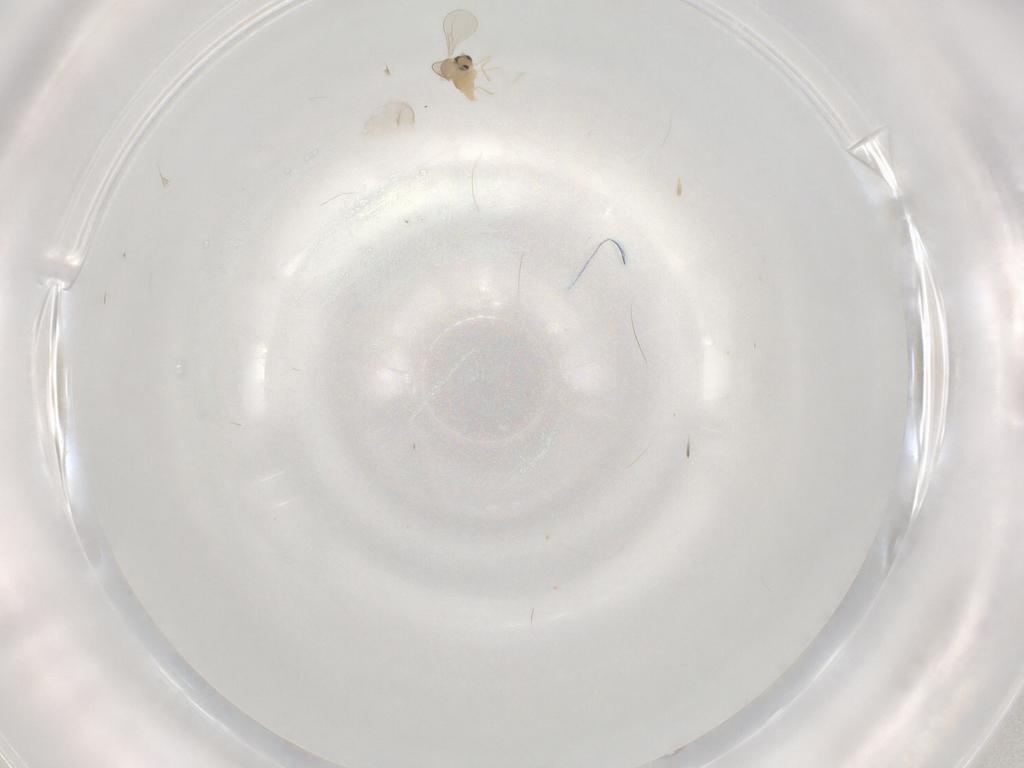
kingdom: Animalia
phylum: Arthropoda
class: Insecta
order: Diptera
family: Cecidomyiidae
